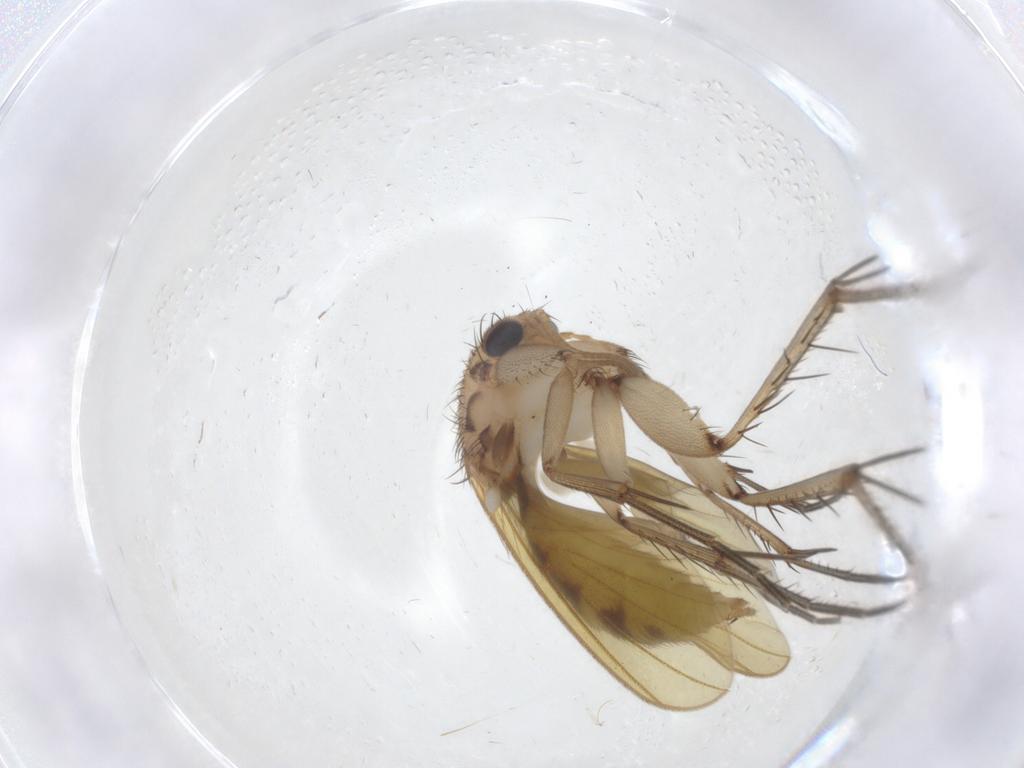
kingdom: Animalia
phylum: Arthropoda
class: Insecta
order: Diptera
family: Mycetophilidae
